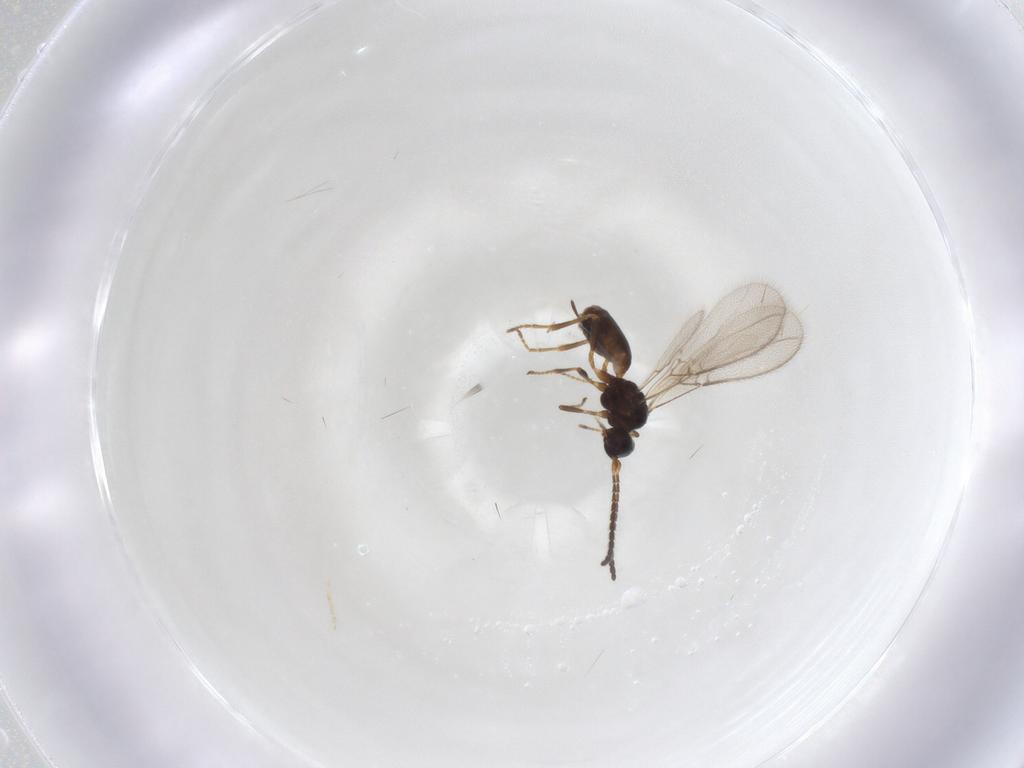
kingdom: Animalia
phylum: Arthropoda
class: Insecta
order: Hymenoptera
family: Braconidae
